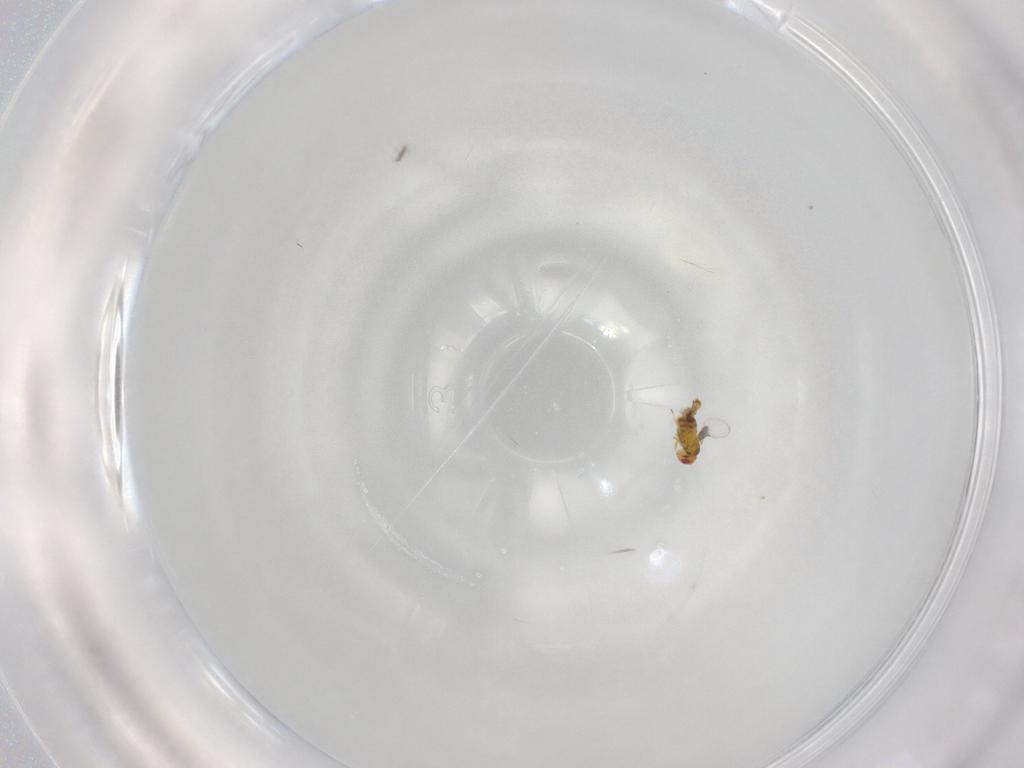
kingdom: Animalia
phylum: Arthropoda
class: Insecta
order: Hymenoptera
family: Trichogrammatidae
